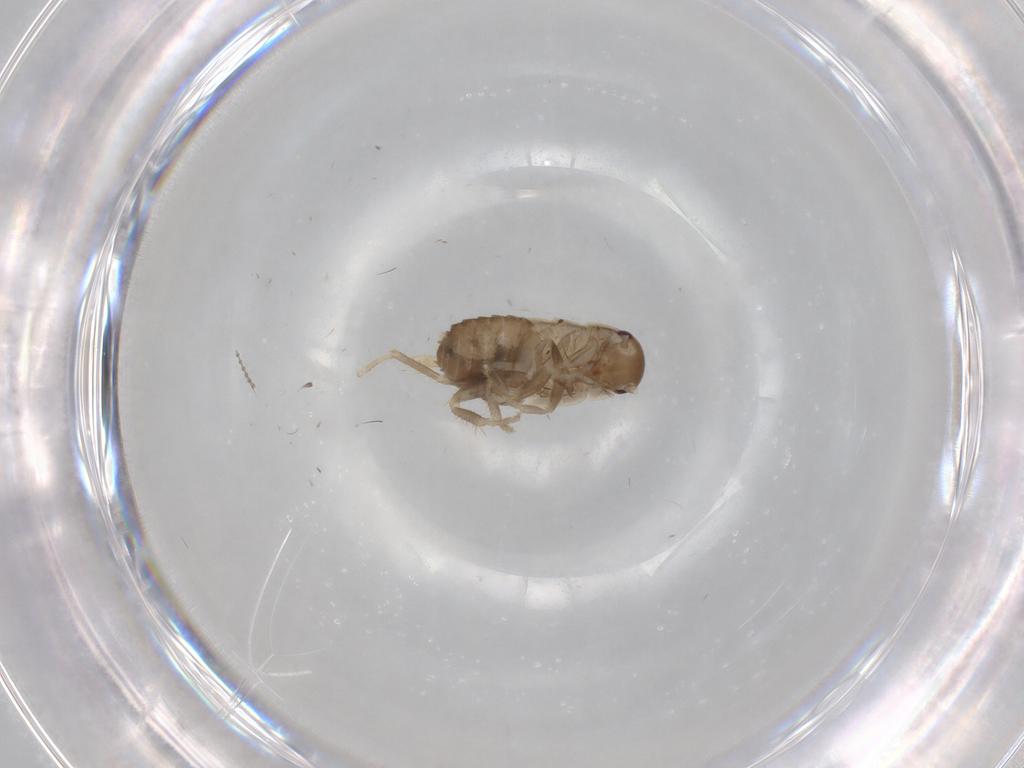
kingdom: Animalia
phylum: Arthropoda
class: Insecta
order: Blattodea
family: Ectobiidae
